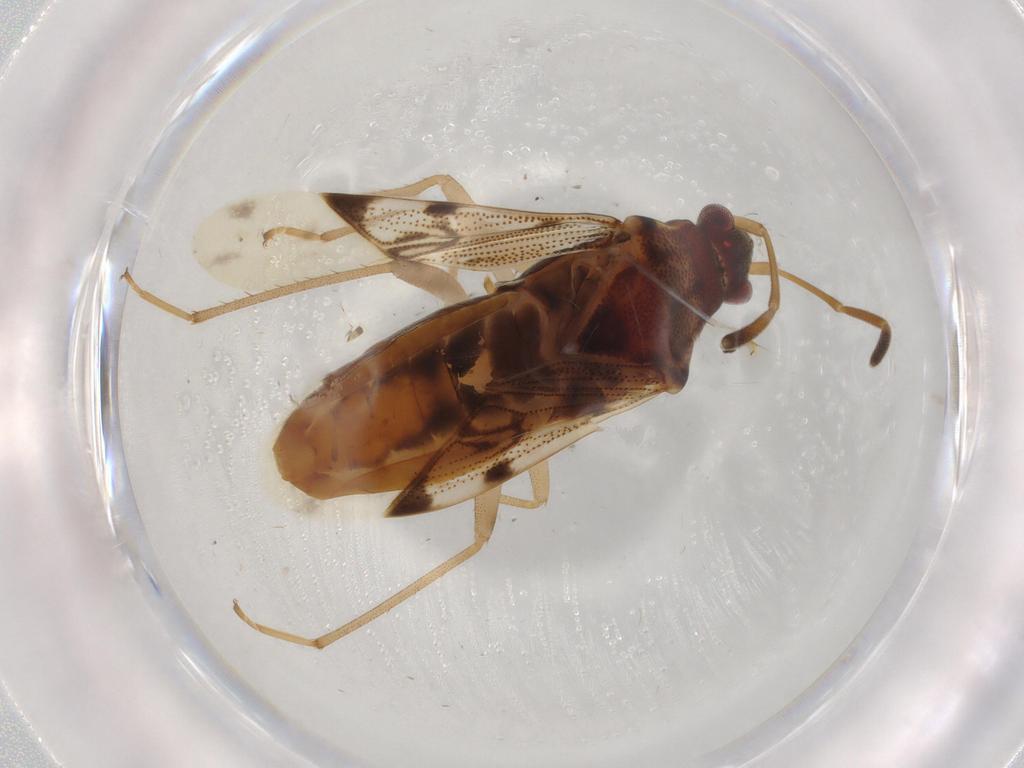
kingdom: Animalia
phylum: Arthropoda
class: Insecta
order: Hemiptera
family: Rhyparochromidae
